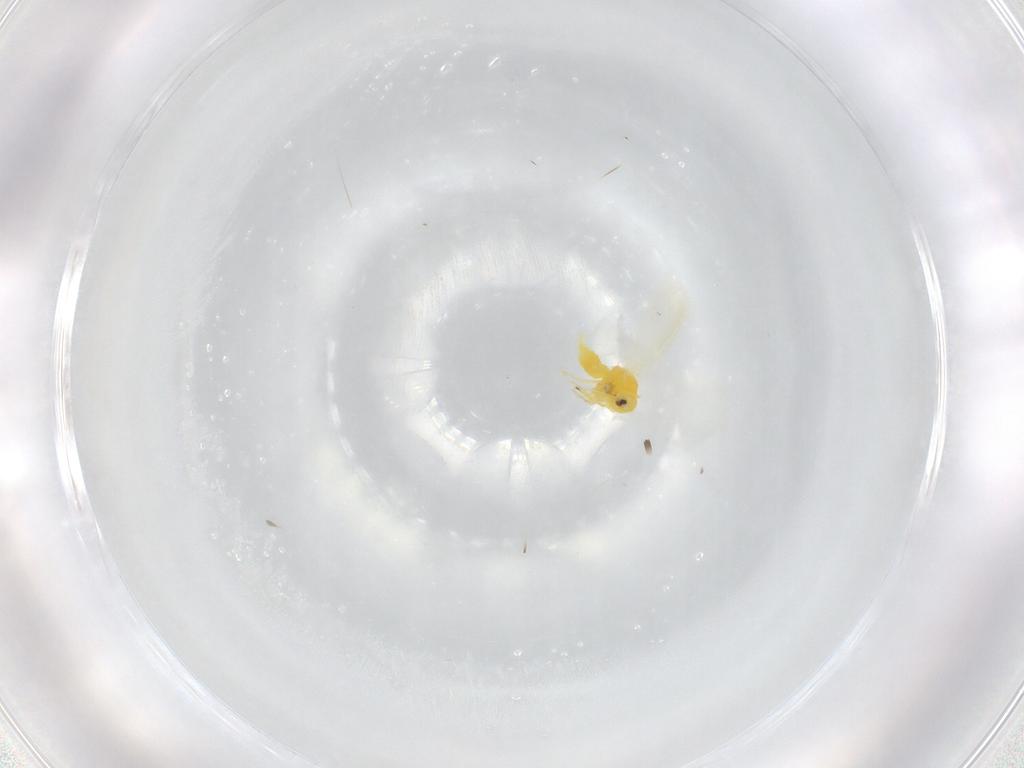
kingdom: Animalia
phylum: Arthropoda
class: Insecta
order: Hemiptera
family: Aleyrodidae
